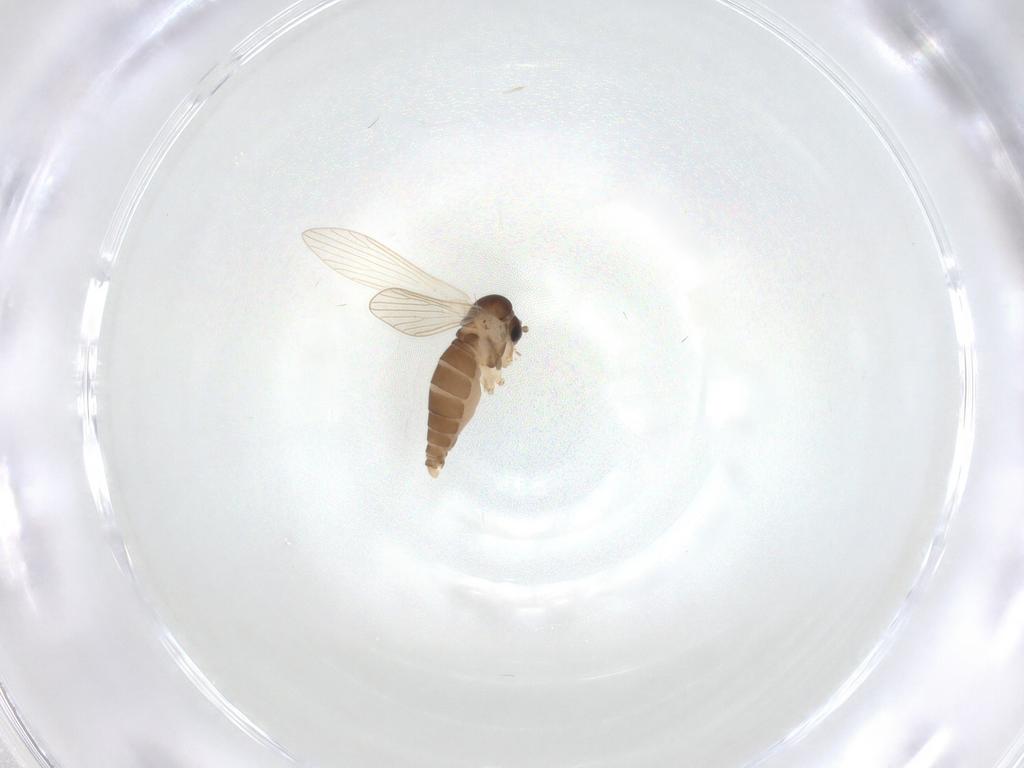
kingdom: Animalia
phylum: Arthropoda
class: Insecta
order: Diptera
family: Psychodidae
